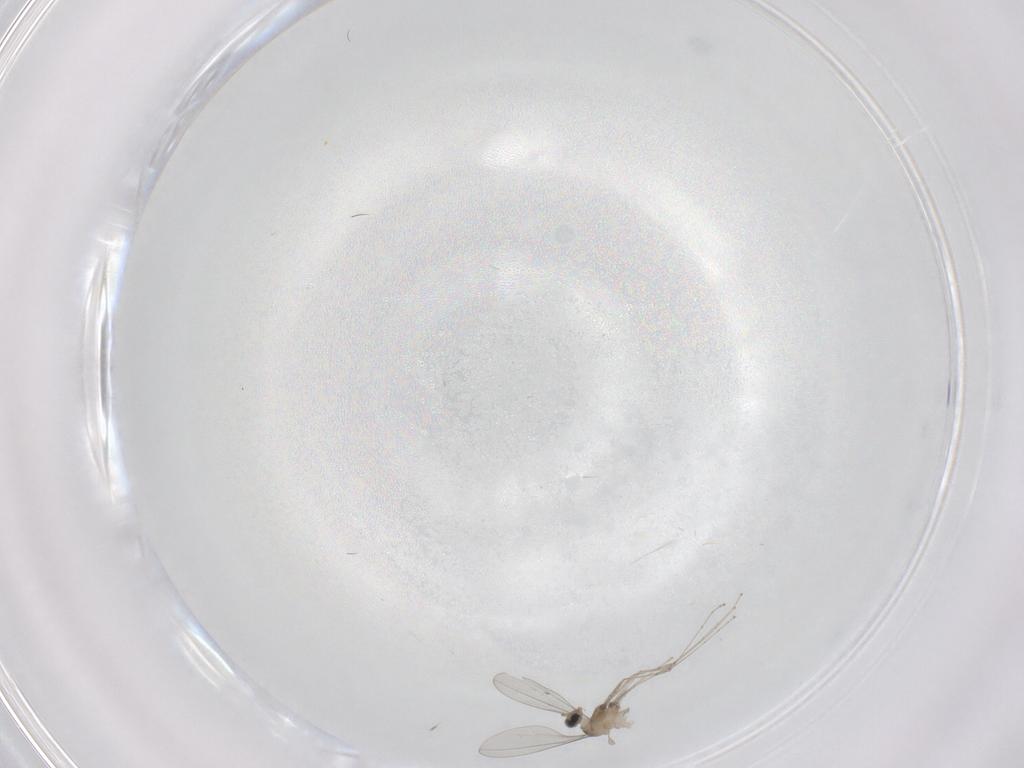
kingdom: Animalia
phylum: Arthropoda
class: Insecta
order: Diptera
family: Cecidomyiidae
